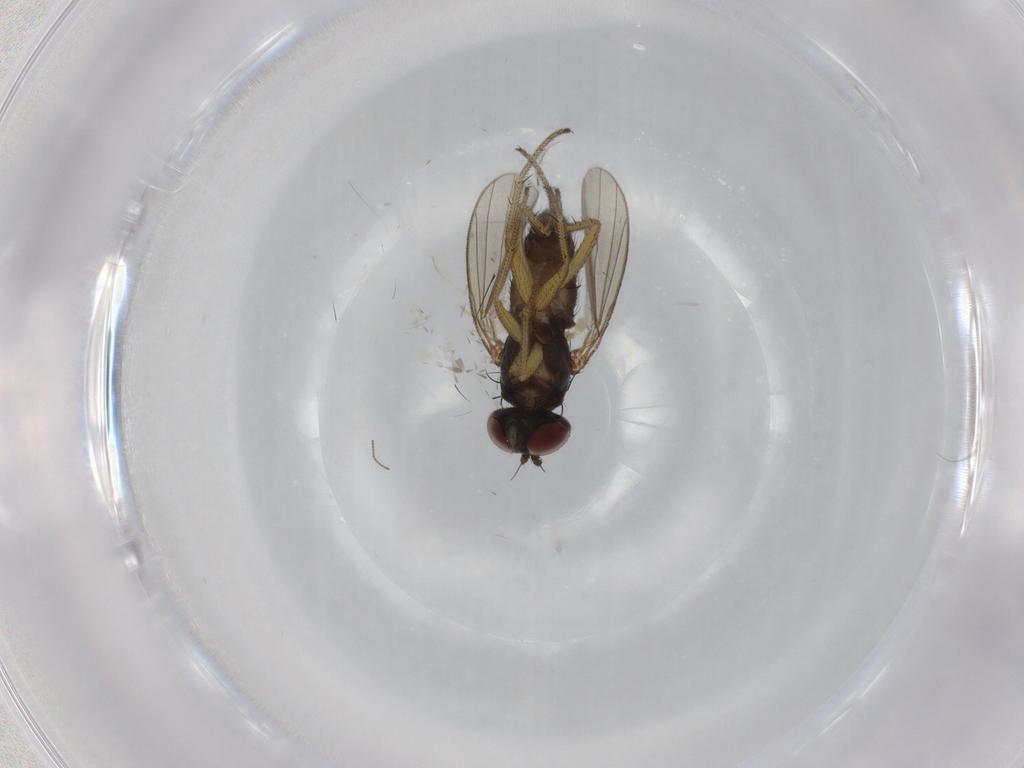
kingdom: Animalia
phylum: Arthropoda
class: Insecta
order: Diptera
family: Dolichopodidae
